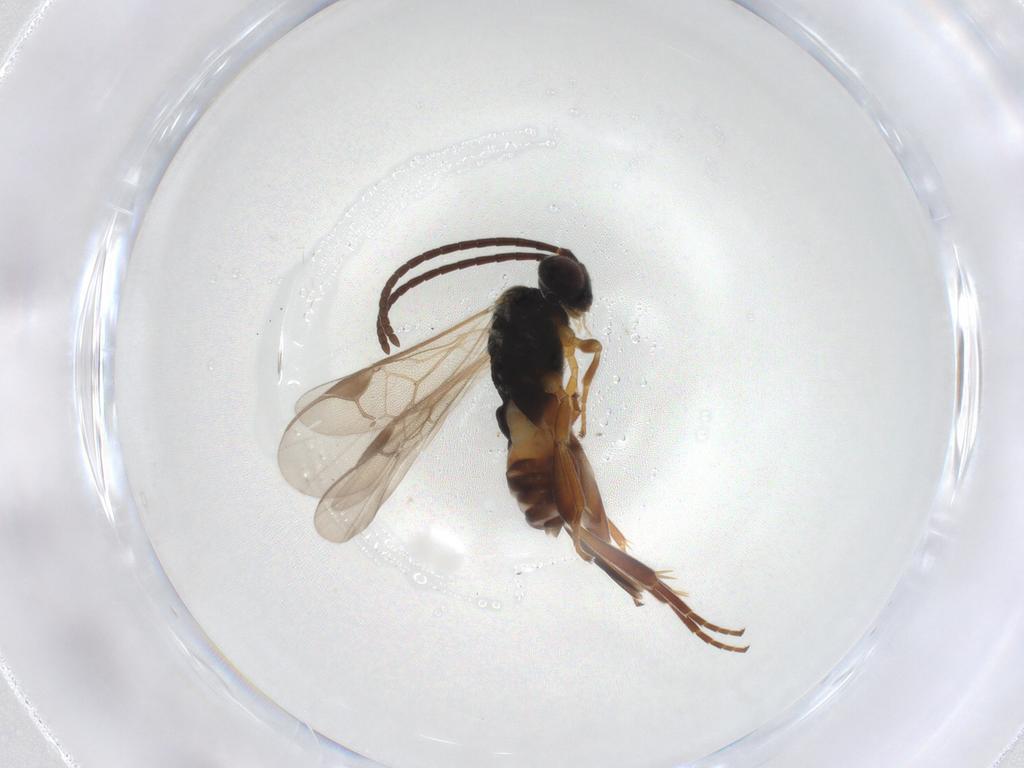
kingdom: Animalia
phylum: Arthropoda
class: Insecta
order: Hymenoptera
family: Braconidae
